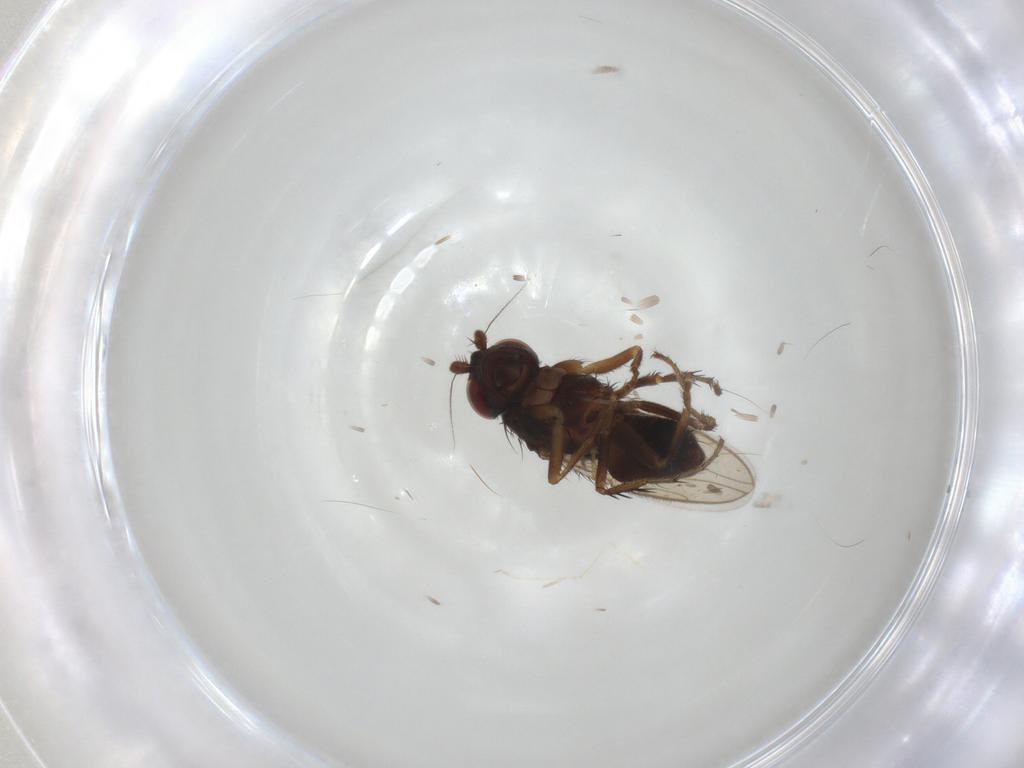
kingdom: Animalia
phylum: Arthropoda
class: Insecta
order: Diptera
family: Sphaeroceridae
